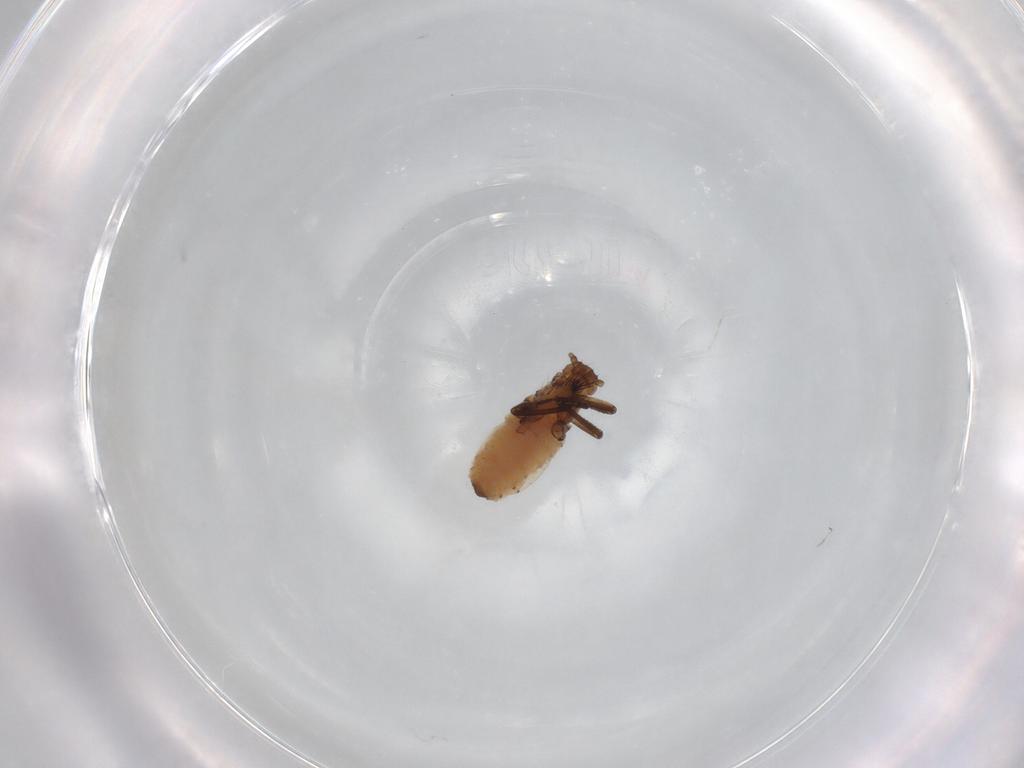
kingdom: Animalia
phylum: Arthropoda
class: Insecta
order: Hemiptera
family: Aphididae
